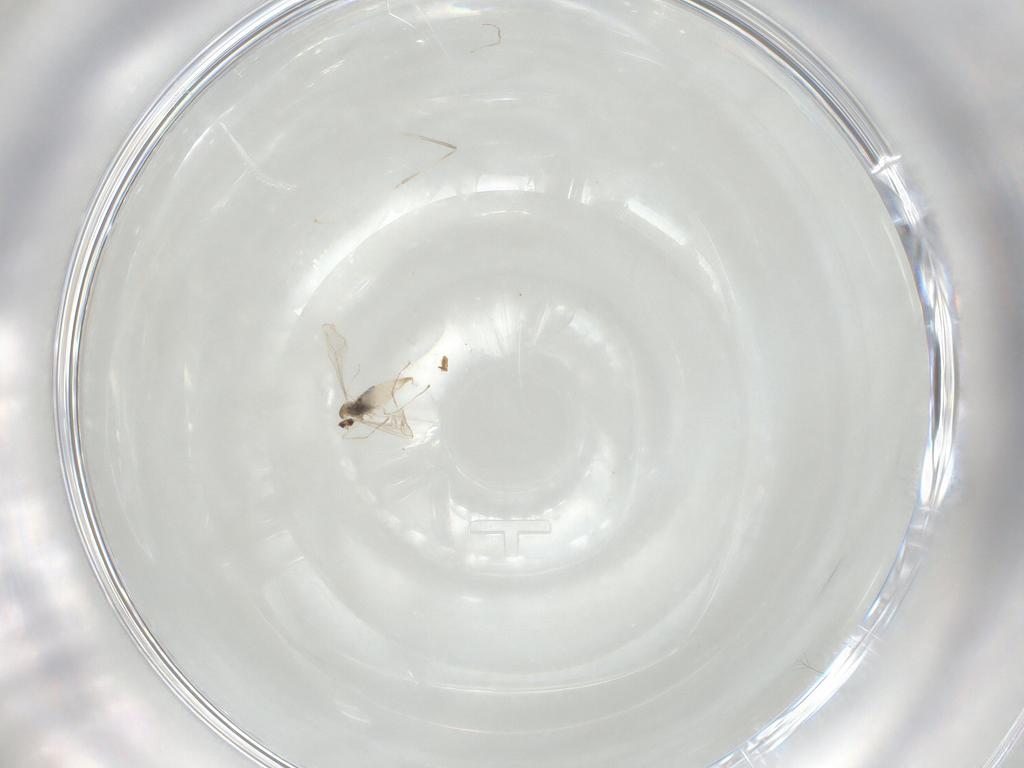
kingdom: Animalia
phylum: Arthropoda
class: Insecta
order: Diptera
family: Cecidomyiidae
